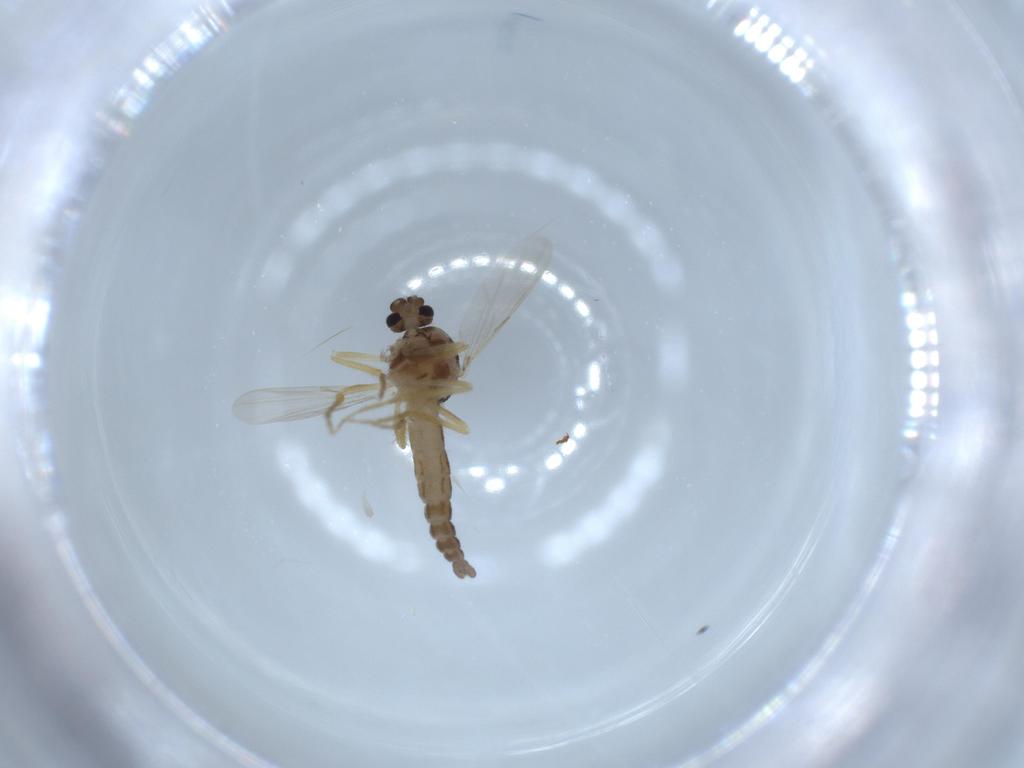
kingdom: Animalia
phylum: Arthropoda
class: Insecta
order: Diptera
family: Ceratopogonidae
